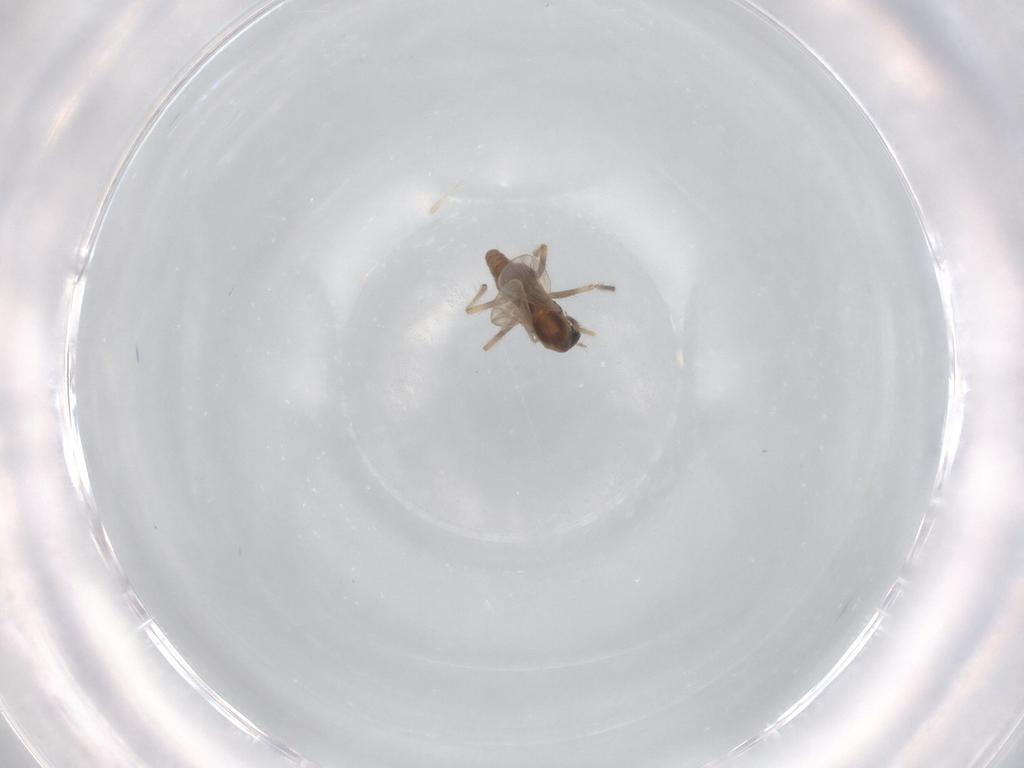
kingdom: Animalia
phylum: Arthropoda
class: Insecta
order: Diptera
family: Chironomidae
